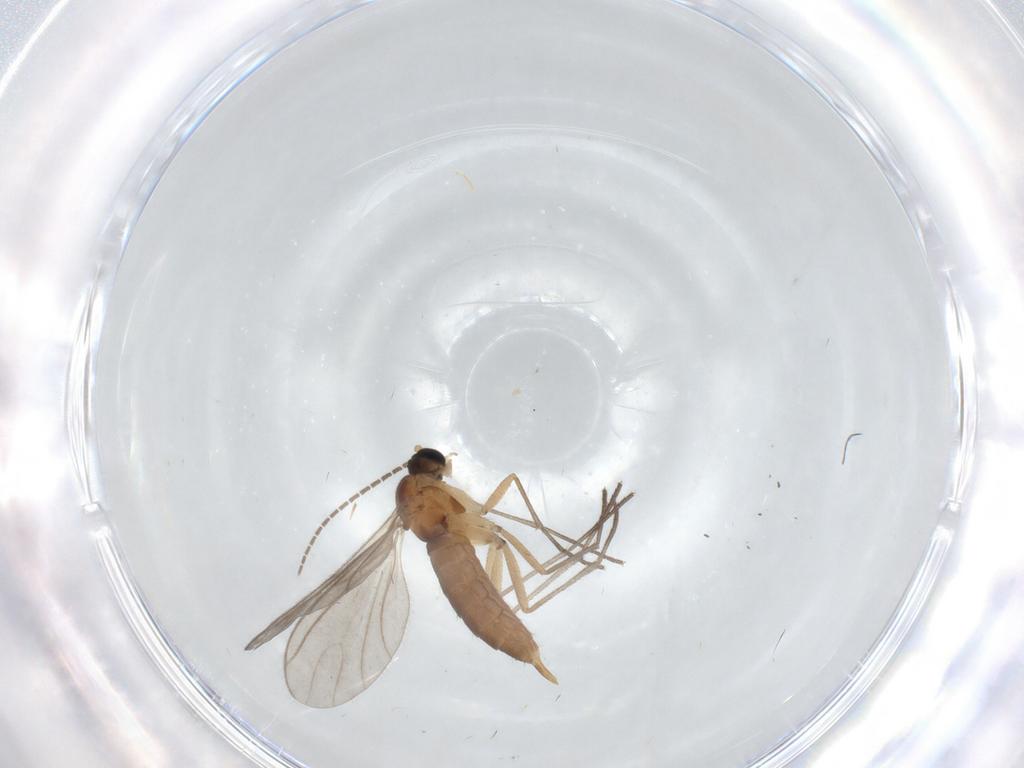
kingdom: Animalia
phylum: Arthropoda
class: Insecta
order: Diptera
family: Sciaridae
